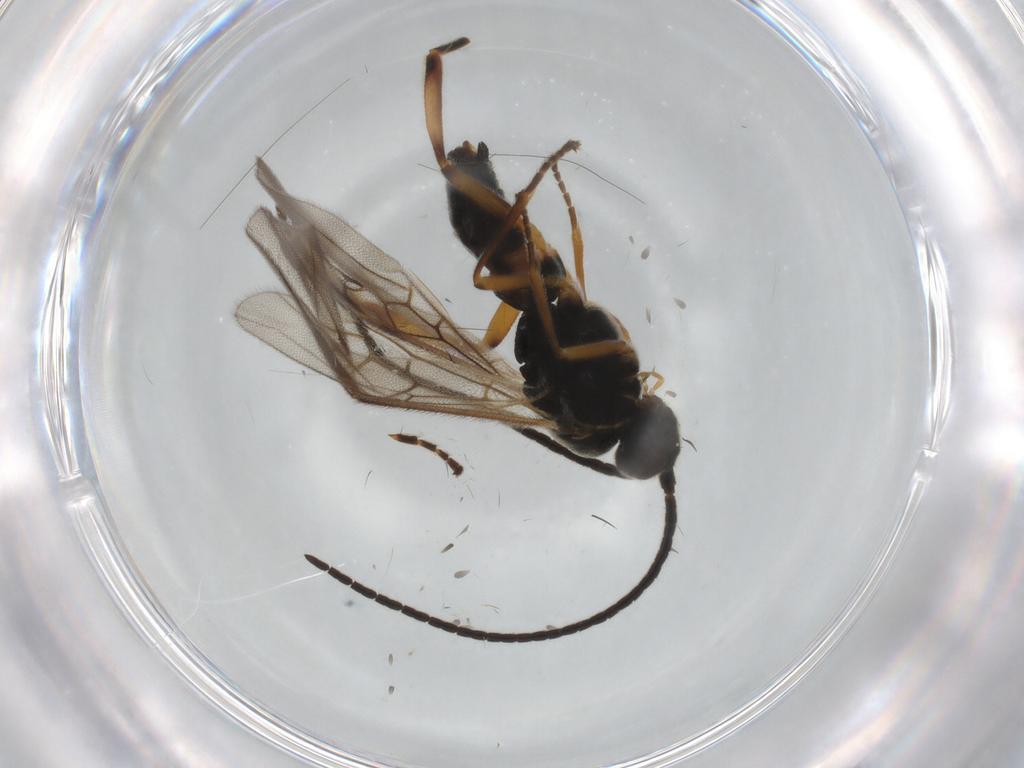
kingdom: Animalia
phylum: Arthropoda
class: Insecta
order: Hymenoptera
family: Braconidae
